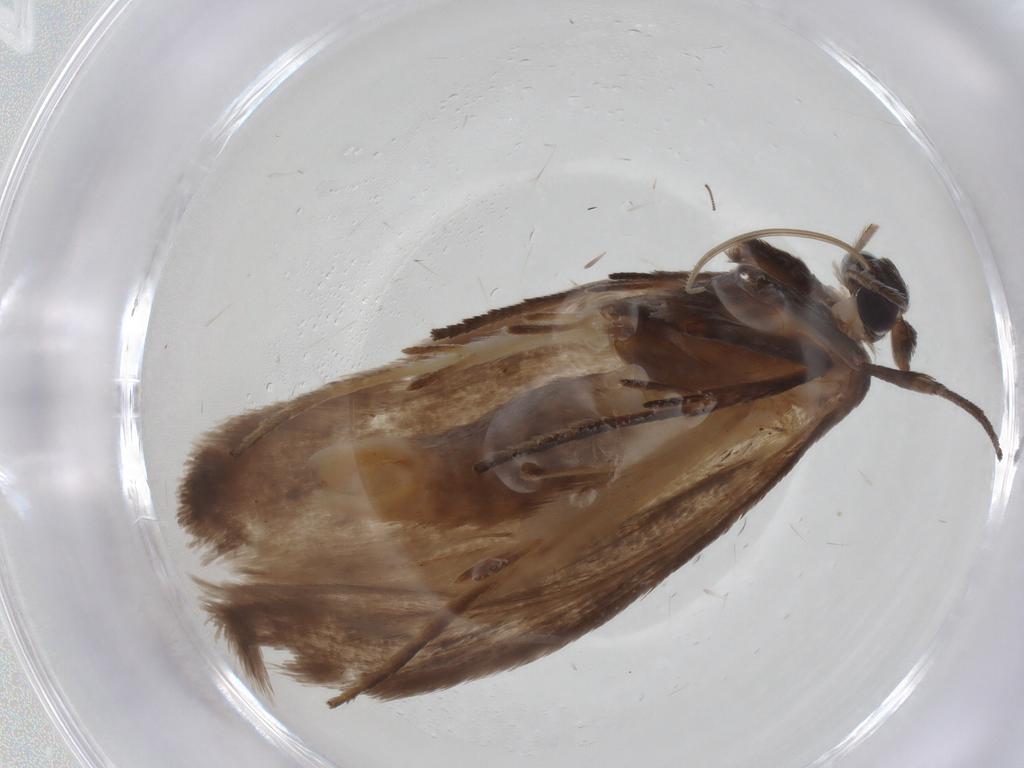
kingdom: Animalia
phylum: Arthropoda
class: Insecta
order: Lepidoptera
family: Roeslerstammiidae
